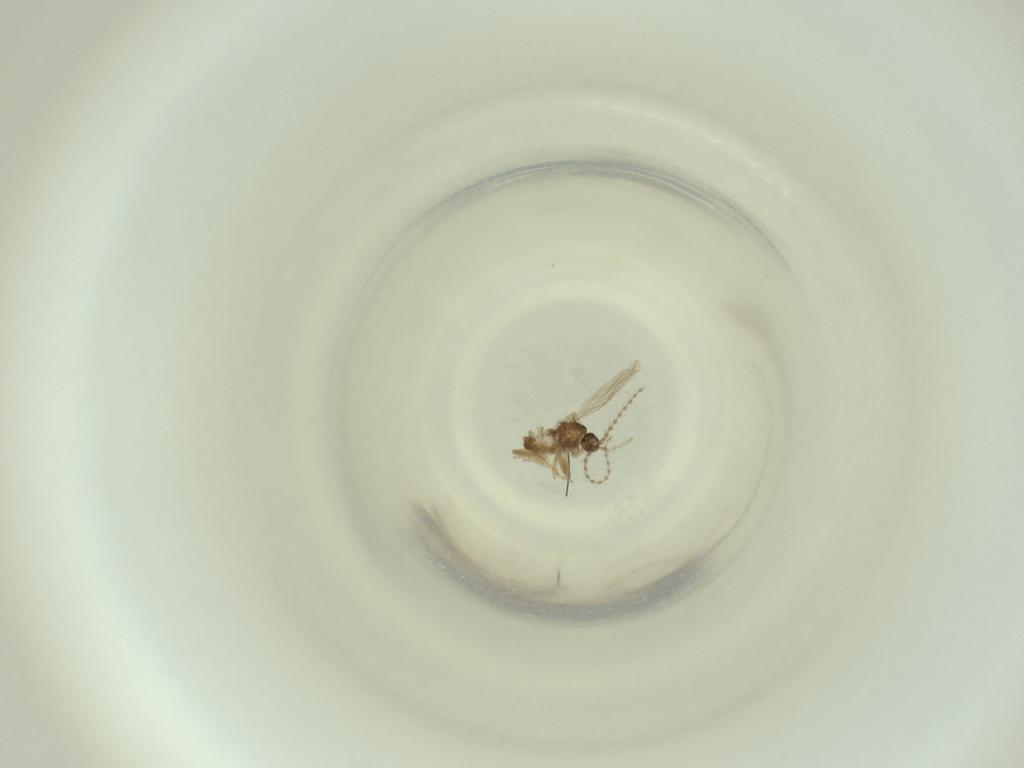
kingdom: Animalia
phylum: Arthropoda
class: Insecta
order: Diptera
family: Cecidomyiidae
